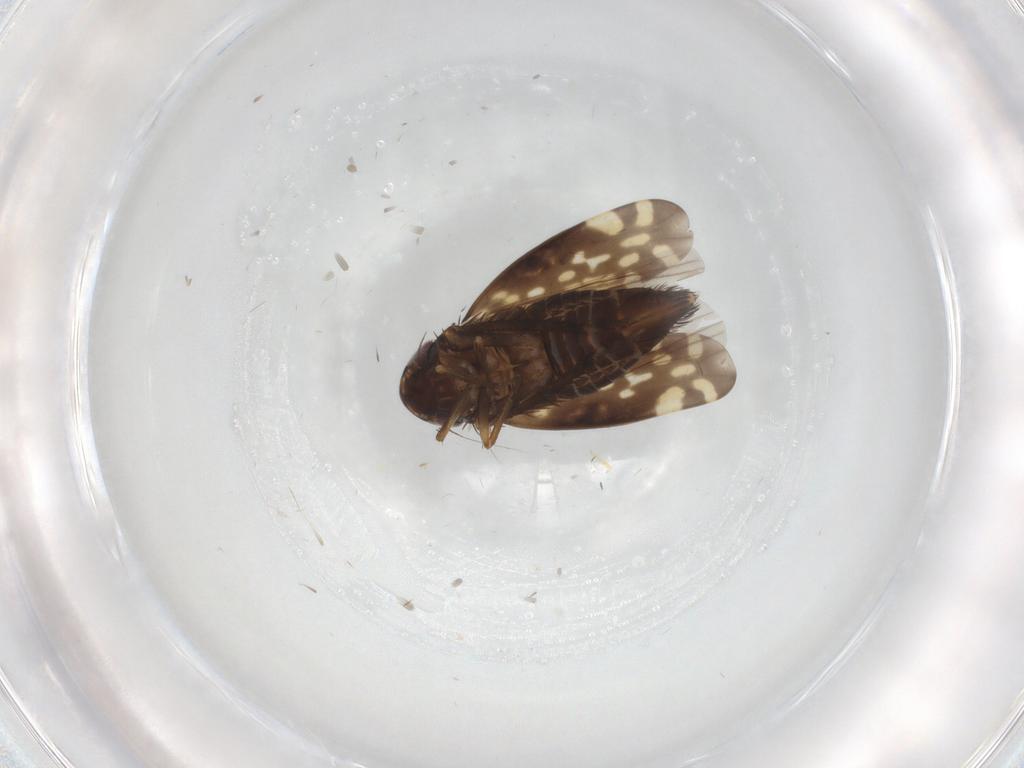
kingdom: Animalia
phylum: Arthropoda
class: Insecta
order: Hemiptera
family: Cicadellidae
